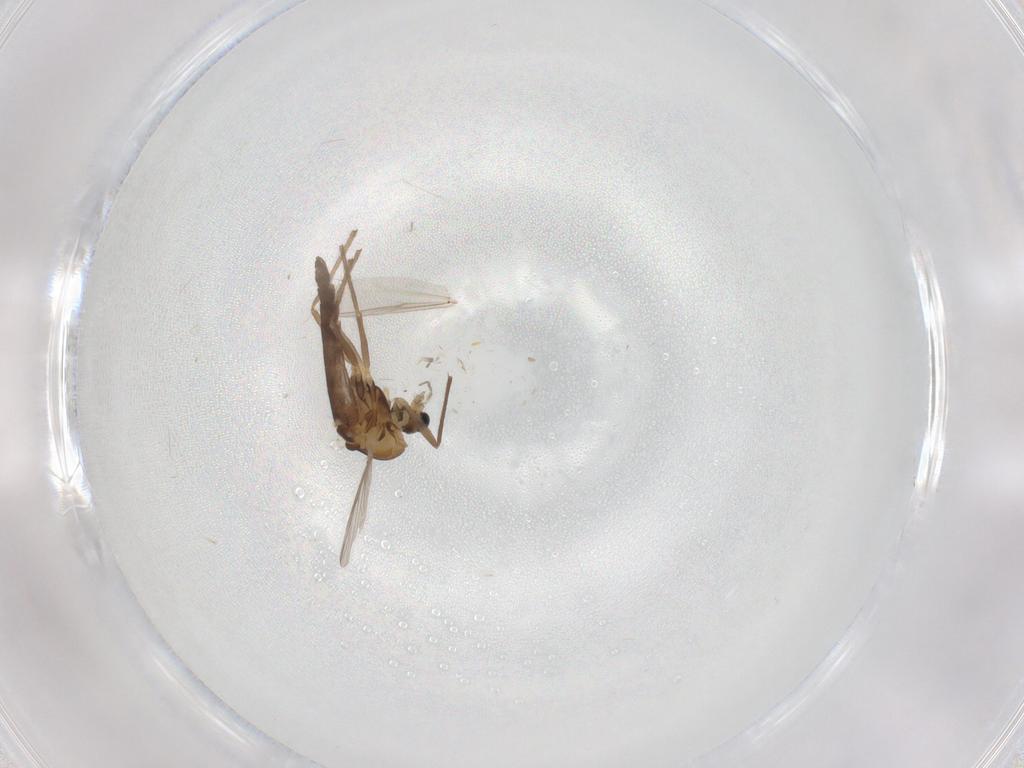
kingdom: Animalia
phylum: Arthropoda
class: Insecta
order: Diptera
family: Chironomidae
